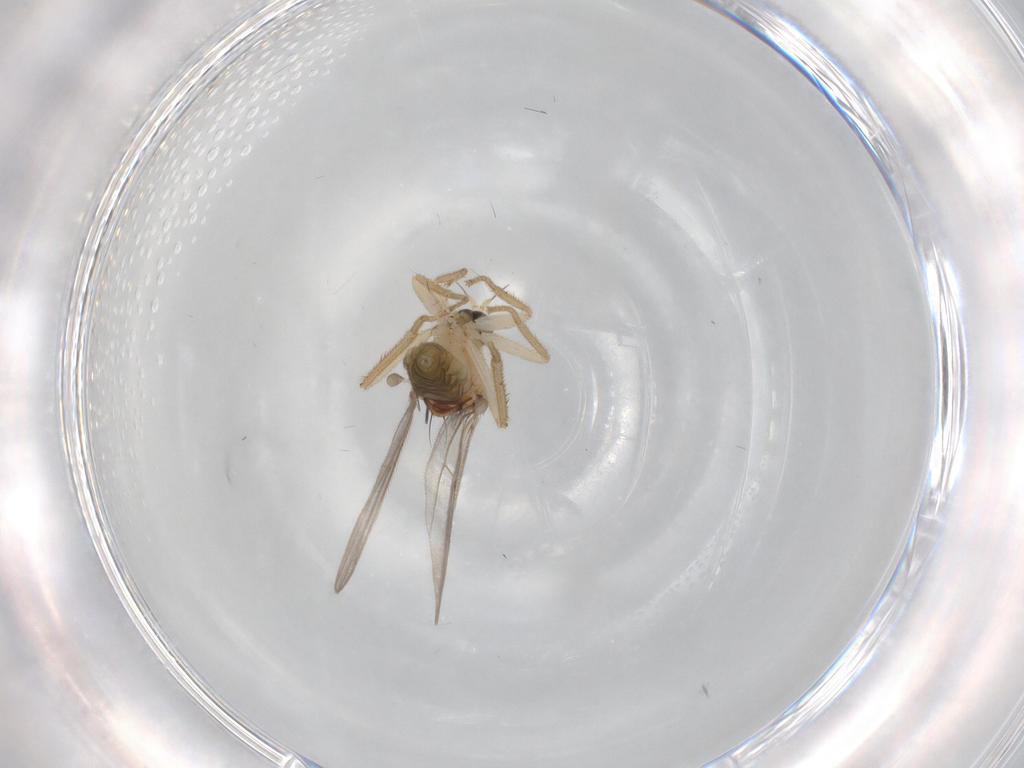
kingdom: Animalia
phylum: Arthropoda
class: Insecta
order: Diptera
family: Hybotidae
